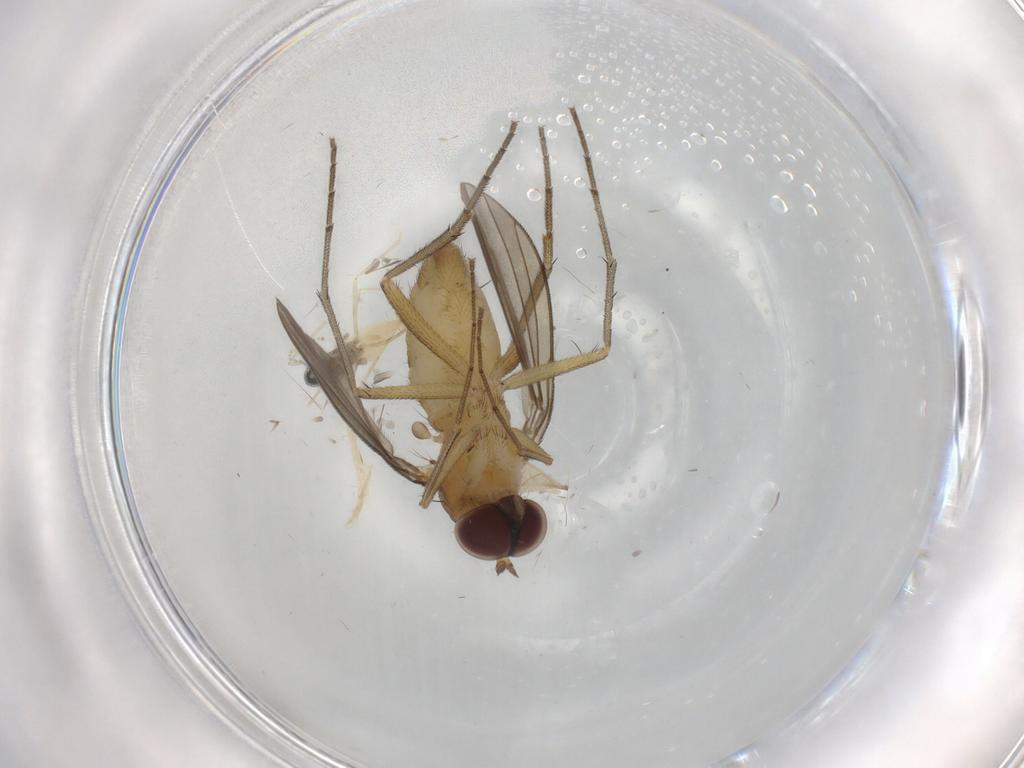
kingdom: Animalia
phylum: Arthropoda
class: Insecta
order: Diptera
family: Dolichopodidae
